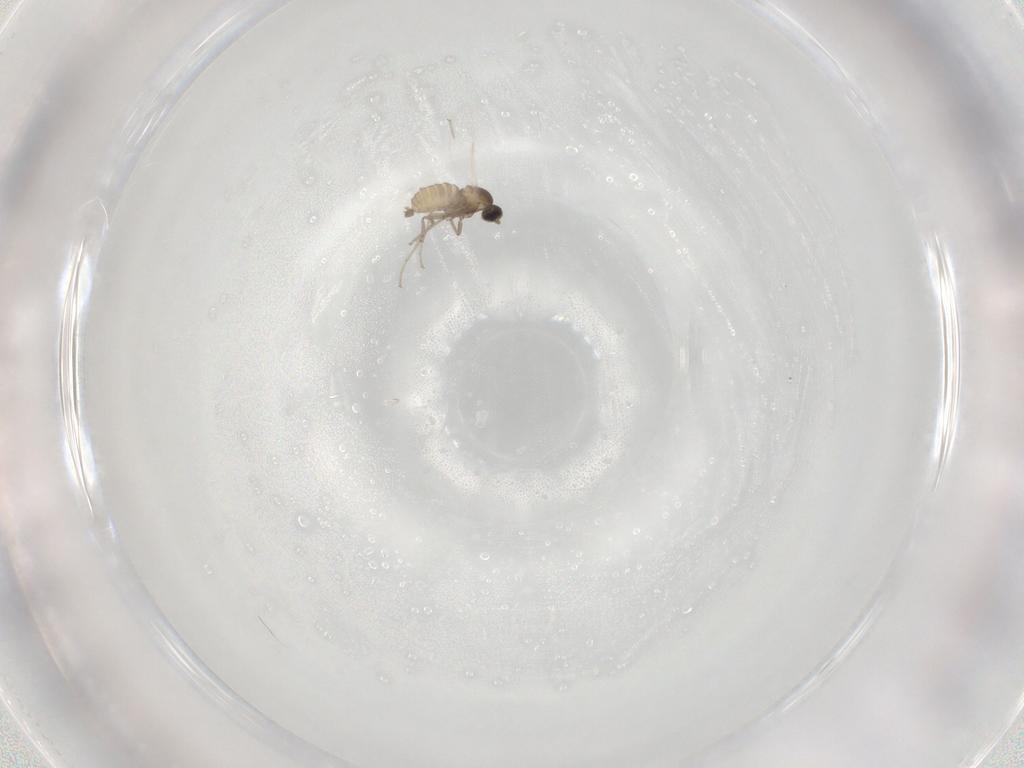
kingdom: Animalia
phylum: Arthropoda
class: Insecta
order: Diptera
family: Cecidomyiidae
